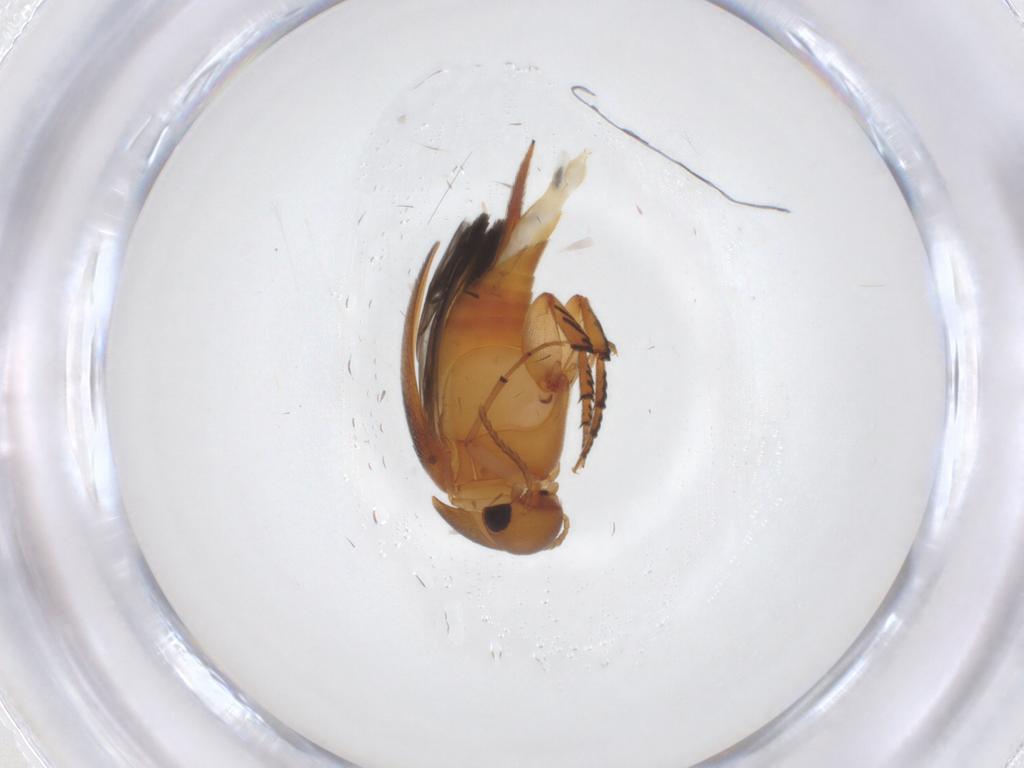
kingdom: Animalia
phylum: Arthropoda
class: Insecta
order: Coleoptera
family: Mordellidae
